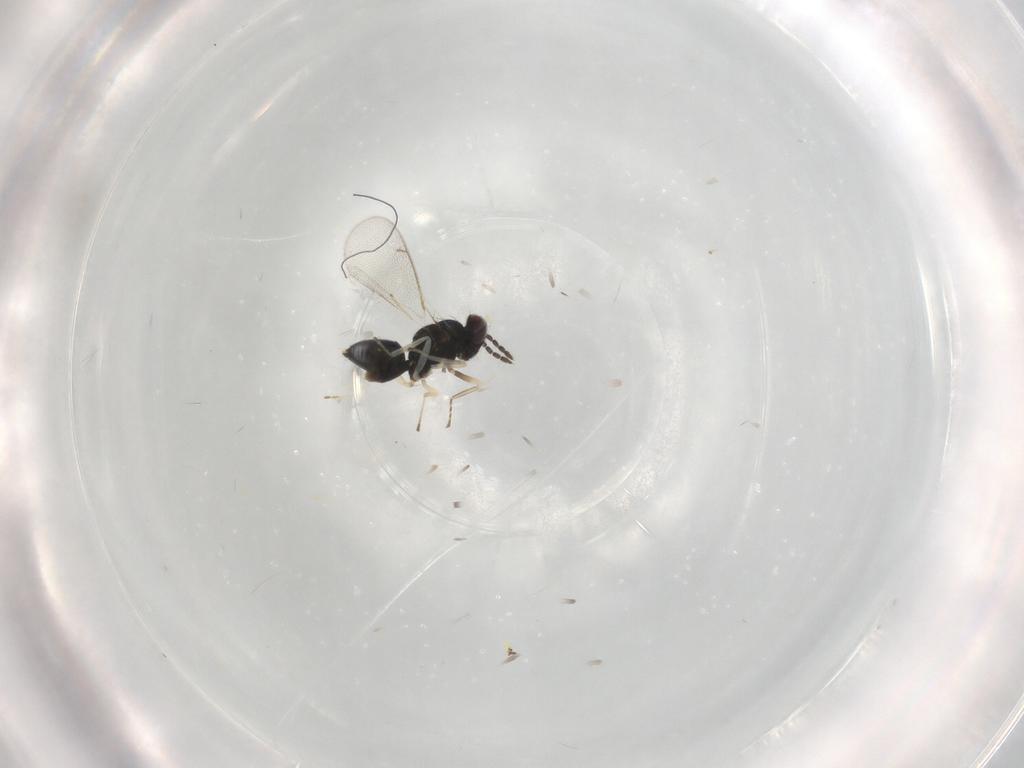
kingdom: Animalia
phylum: Arthropoda
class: Insecta
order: Hymenoptera
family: Eulophidae
